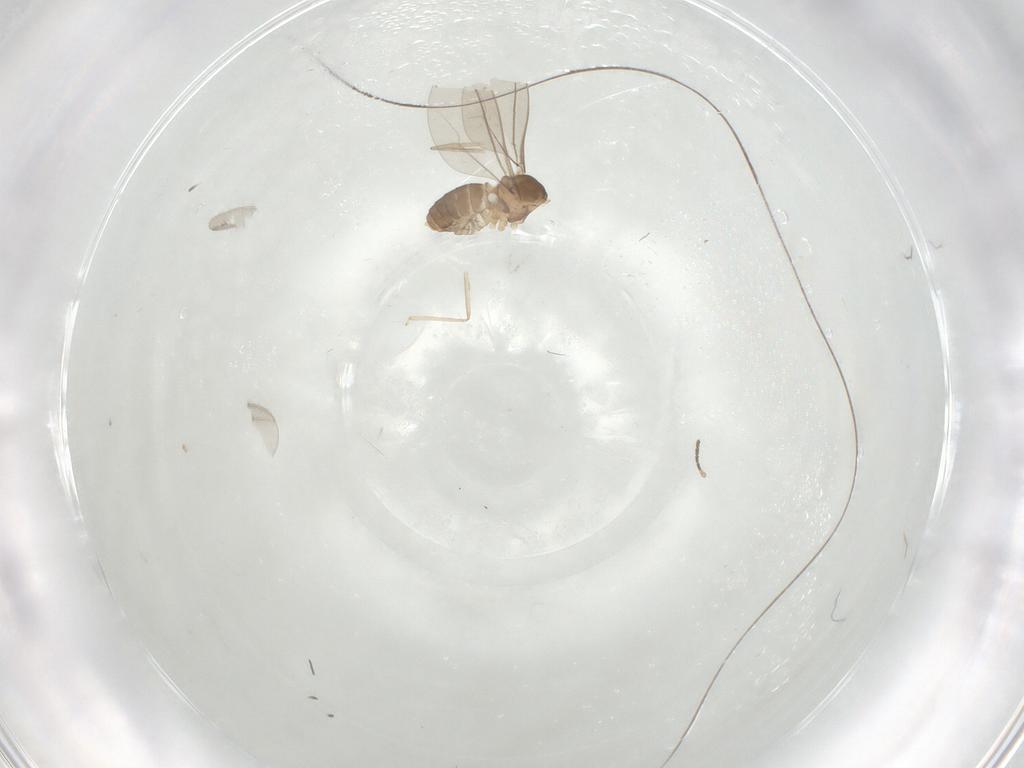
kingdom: Animalia
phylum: Arthropoda
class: Insecta
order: Diptera
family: Cecidomyiidae
